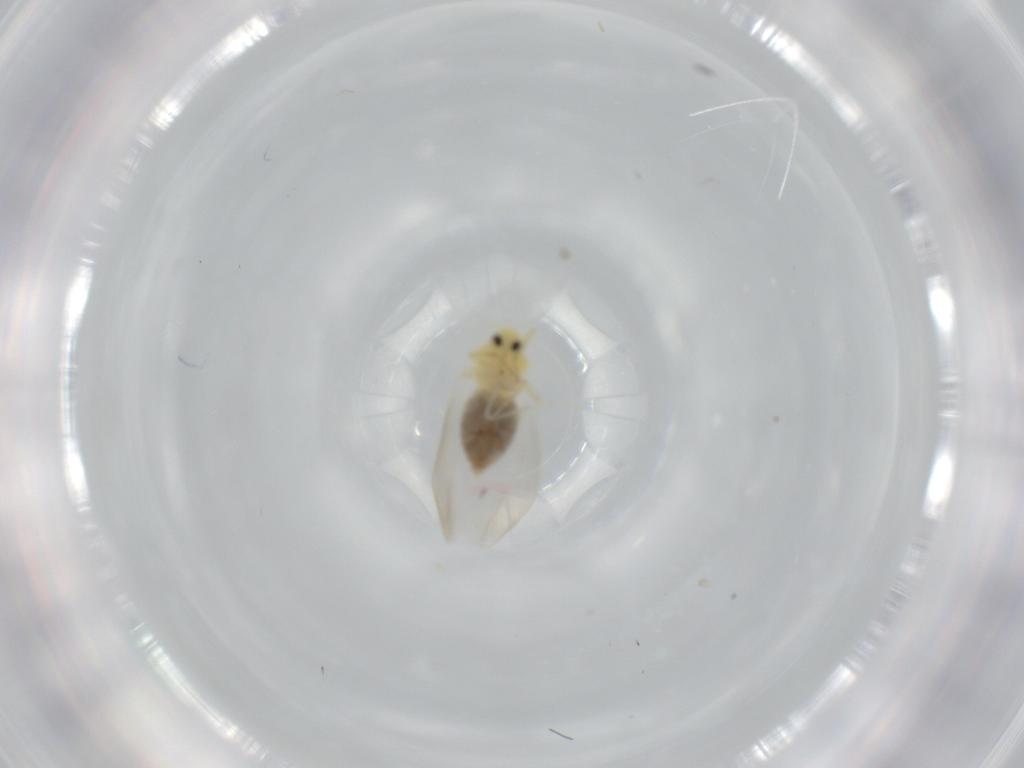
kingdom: Animalia
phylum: Arthropoda
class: Insecta
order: Hemiptera
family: Aleyrodidae
